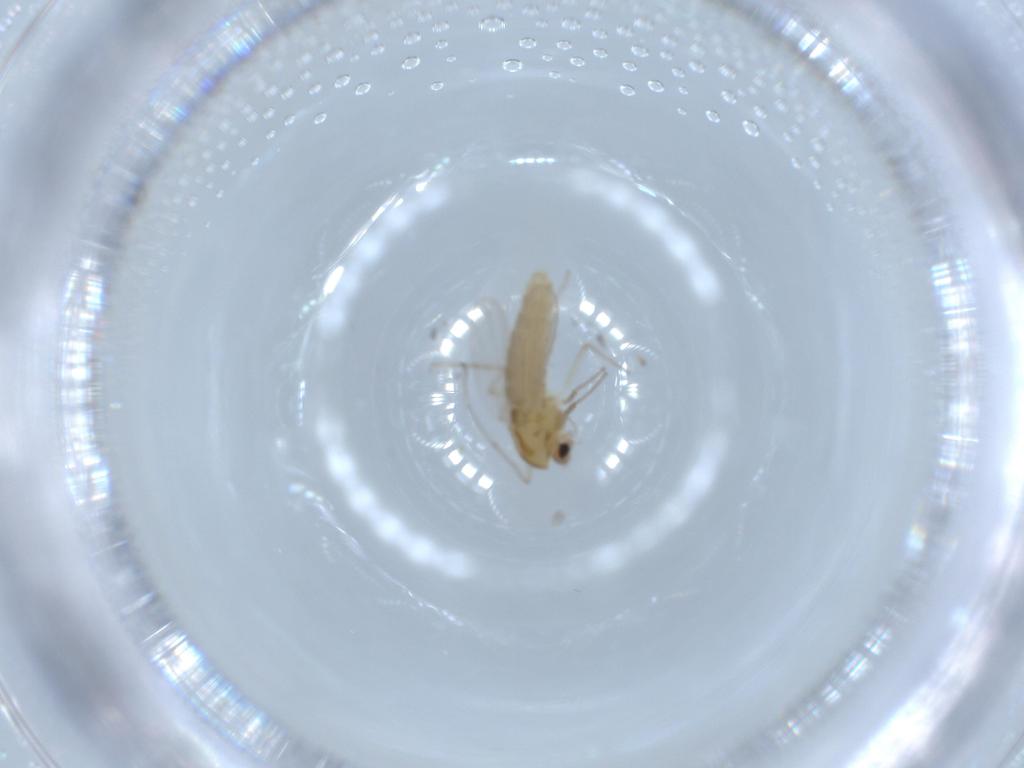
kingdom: Animalia
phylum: Arthropoda
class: Insecta
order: Diptera
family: Chironomidae
